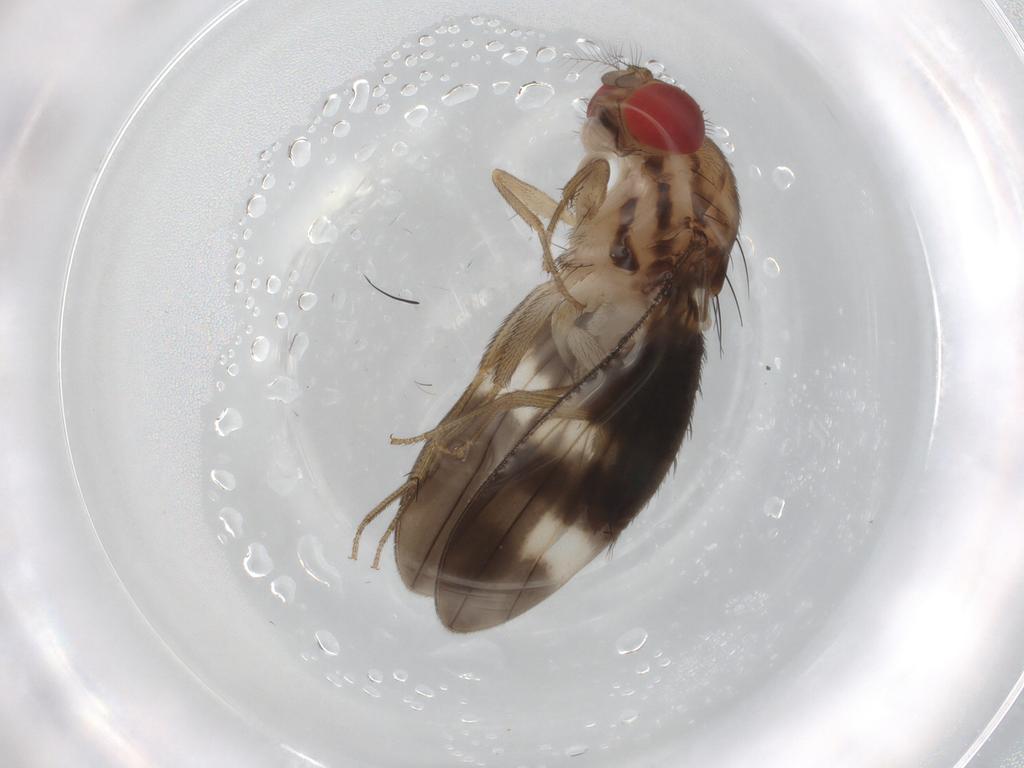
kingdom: Animalia
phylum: Arthropoda
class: Insecta
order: Diptera
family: Drosophilidae
